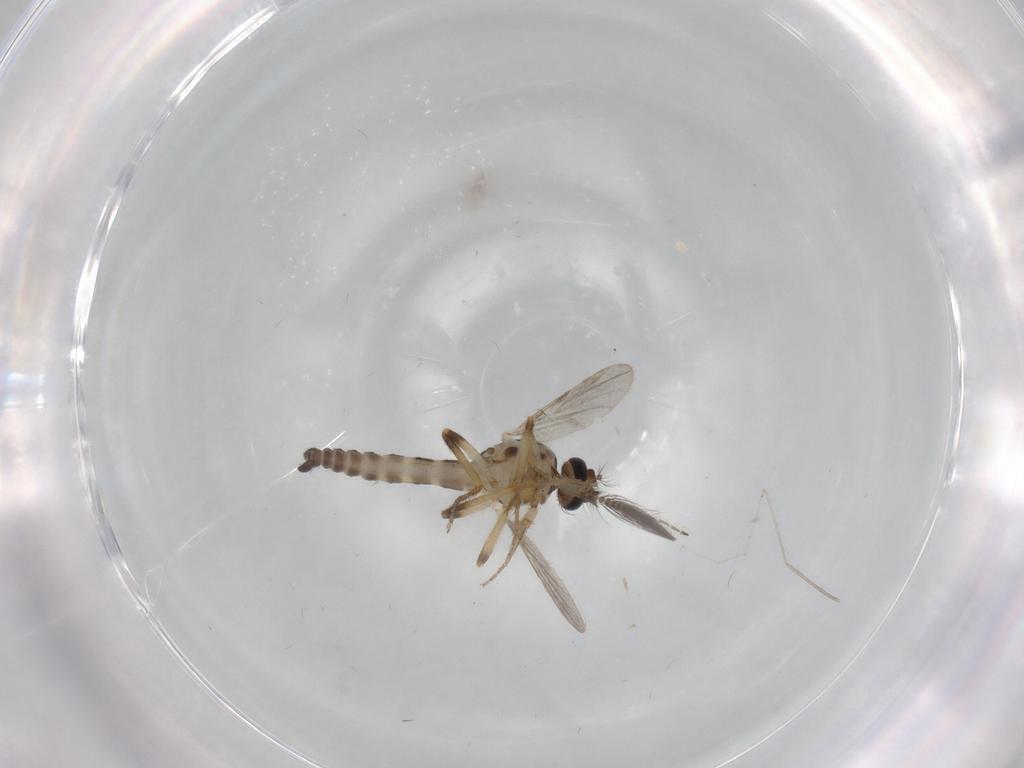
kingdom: Animalia
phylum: Arthropoda
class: Insecta
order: Diptera
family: Ceratopogonidae
